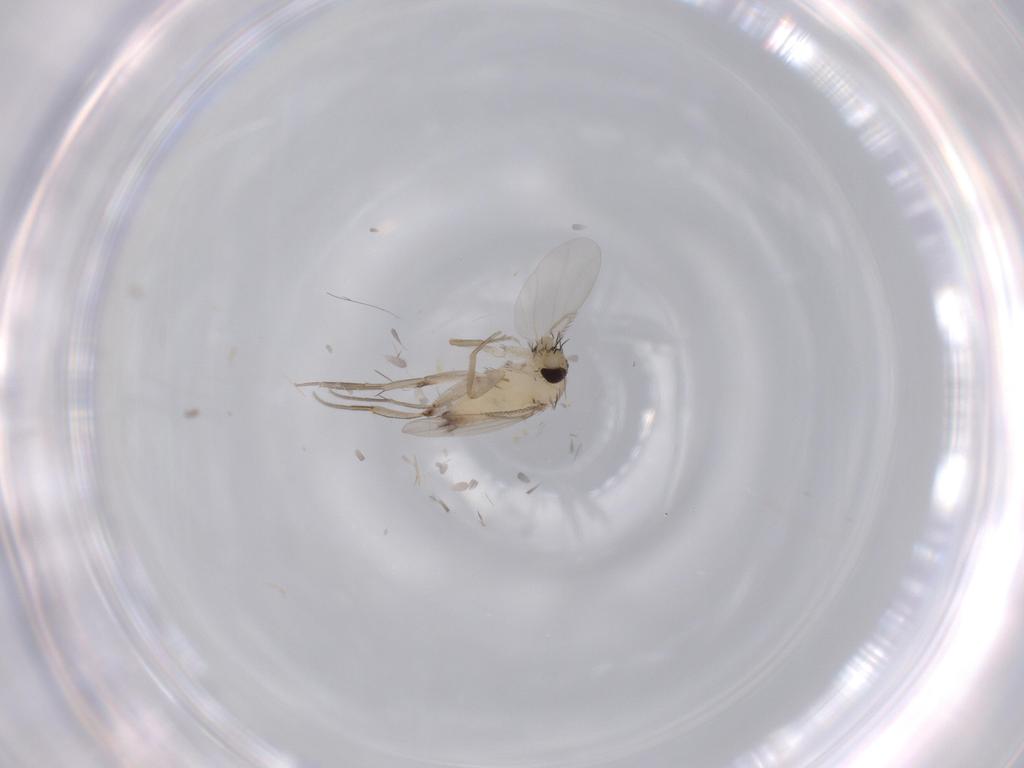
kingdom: Animalia
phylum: Arthropoda
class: Insecta
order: Diptera
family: Phoridae
